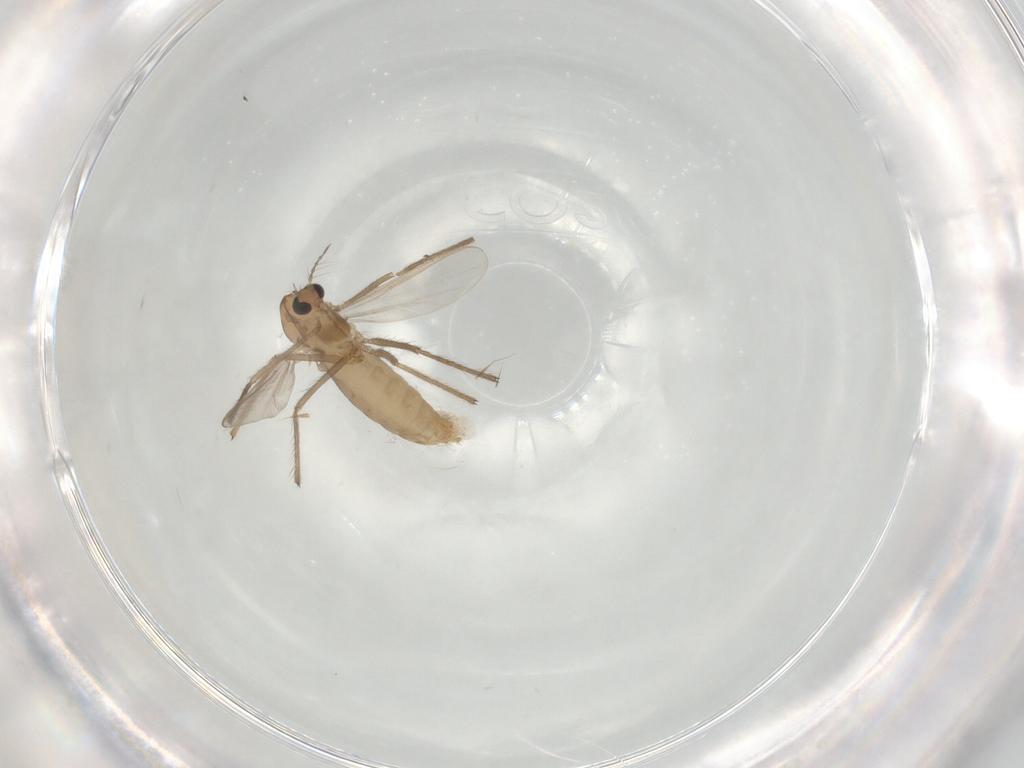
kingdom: Animalia
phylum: Arthropoda
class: Insecta
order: Diptera
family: Chironomidae
